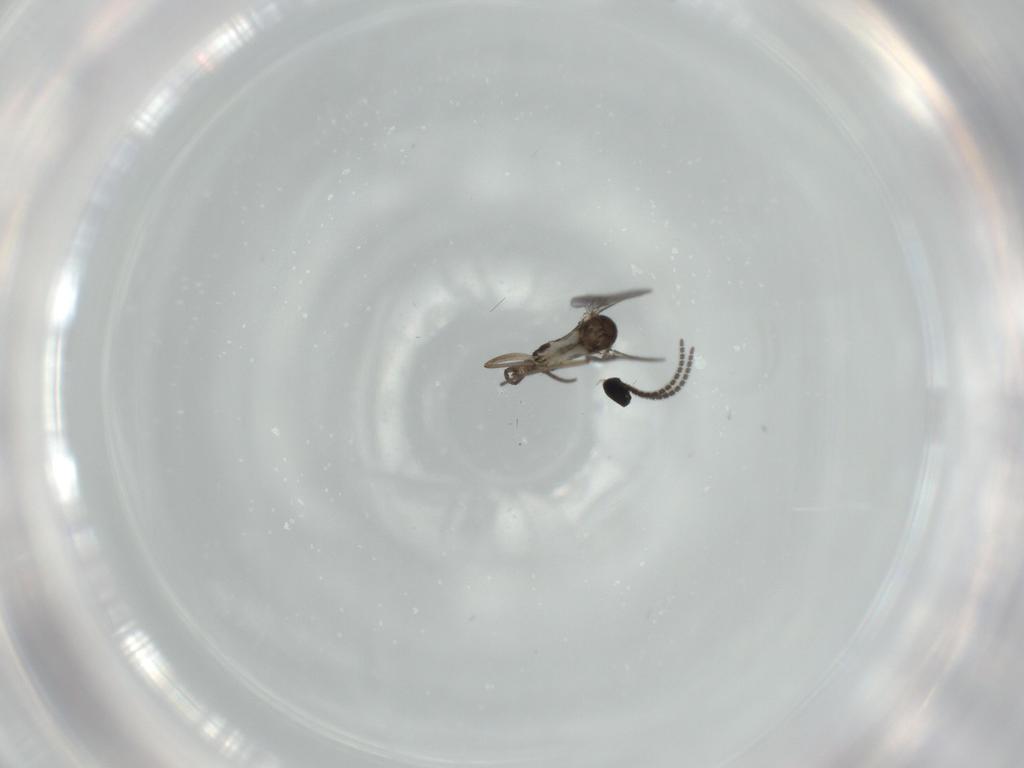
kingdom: Animalia
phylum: Arthropoda
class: Insecta
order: Diptera
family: Sciaridae
